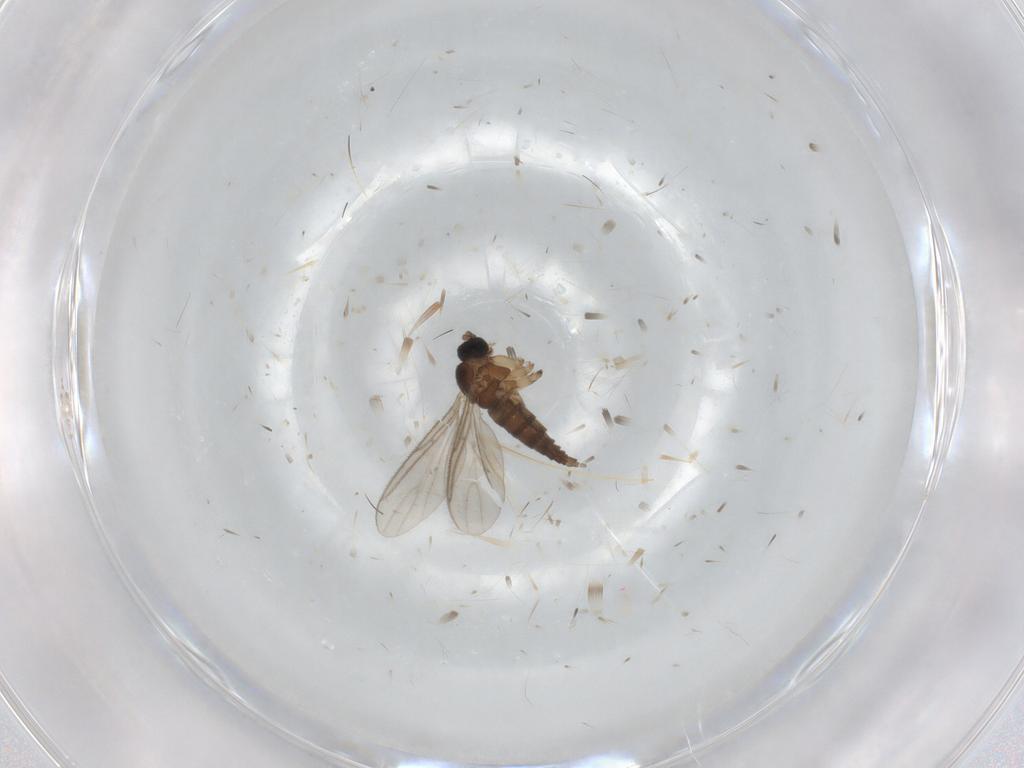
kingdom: Animalia
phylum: Arthropoda
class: Insecta
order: Diptera
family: Sciaridae
